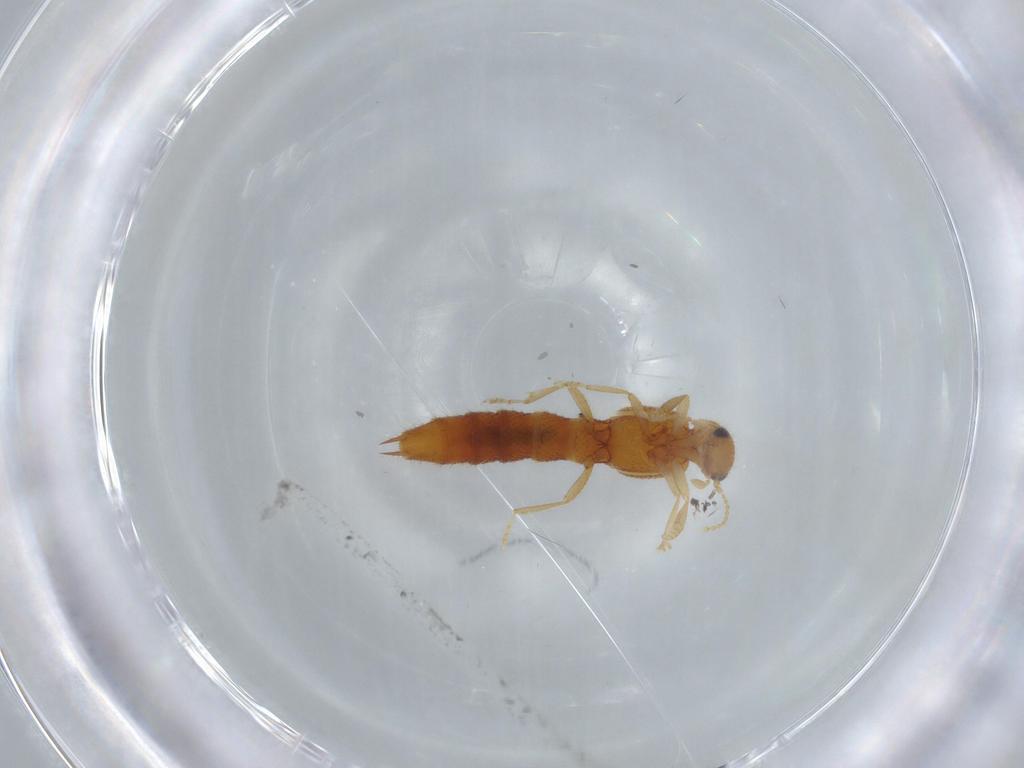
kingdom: Animalia
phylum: Arthropoda
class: Insecta
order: Coleoptera
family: Staphylinidae
